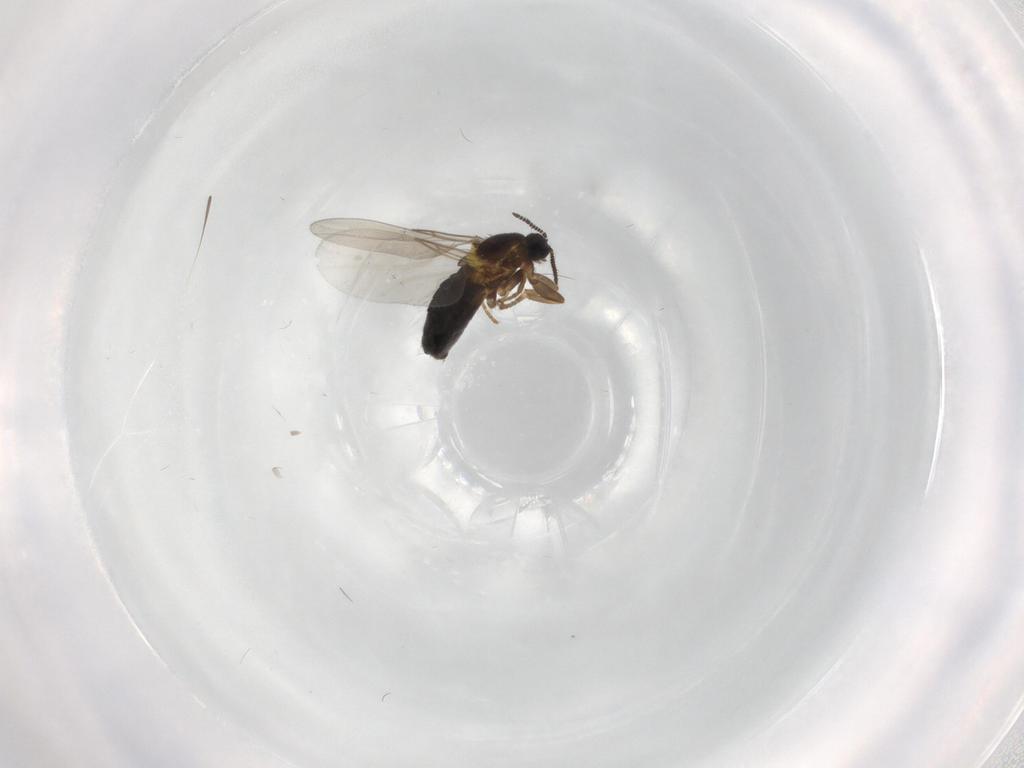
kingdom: Animalia
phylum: Arthropoda
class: Insecta
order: Diptera
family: Scatopsidae
